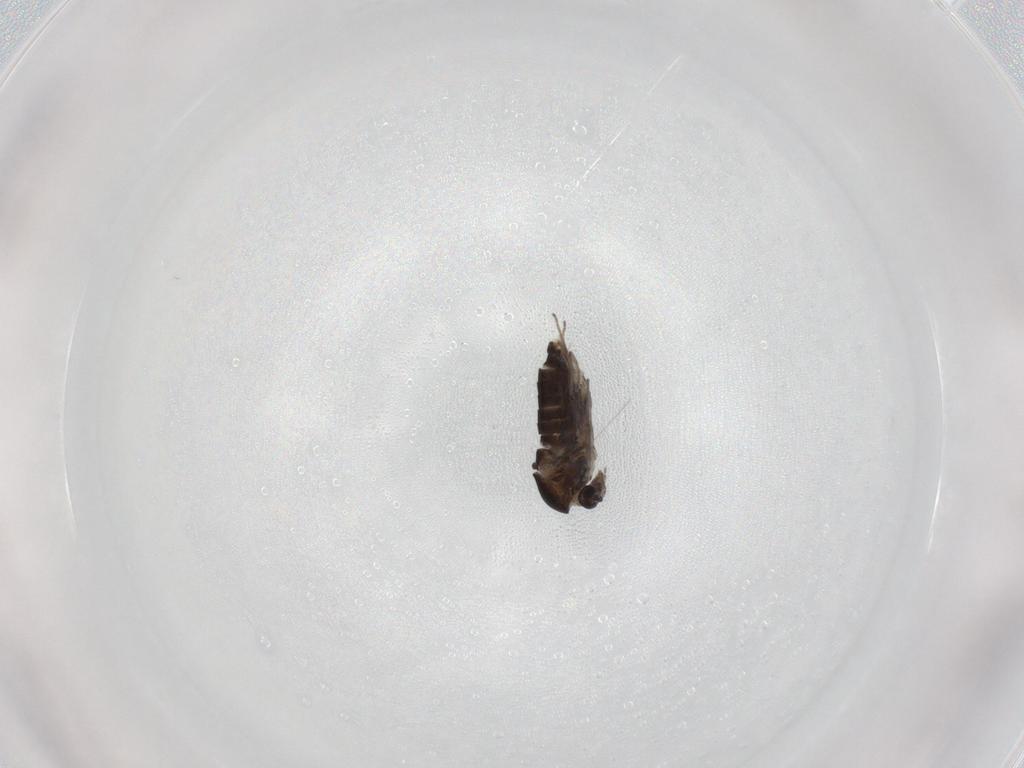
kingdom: Animalia
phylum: Arthropoda
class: Insecta
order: Diptera
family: Chironomidae
